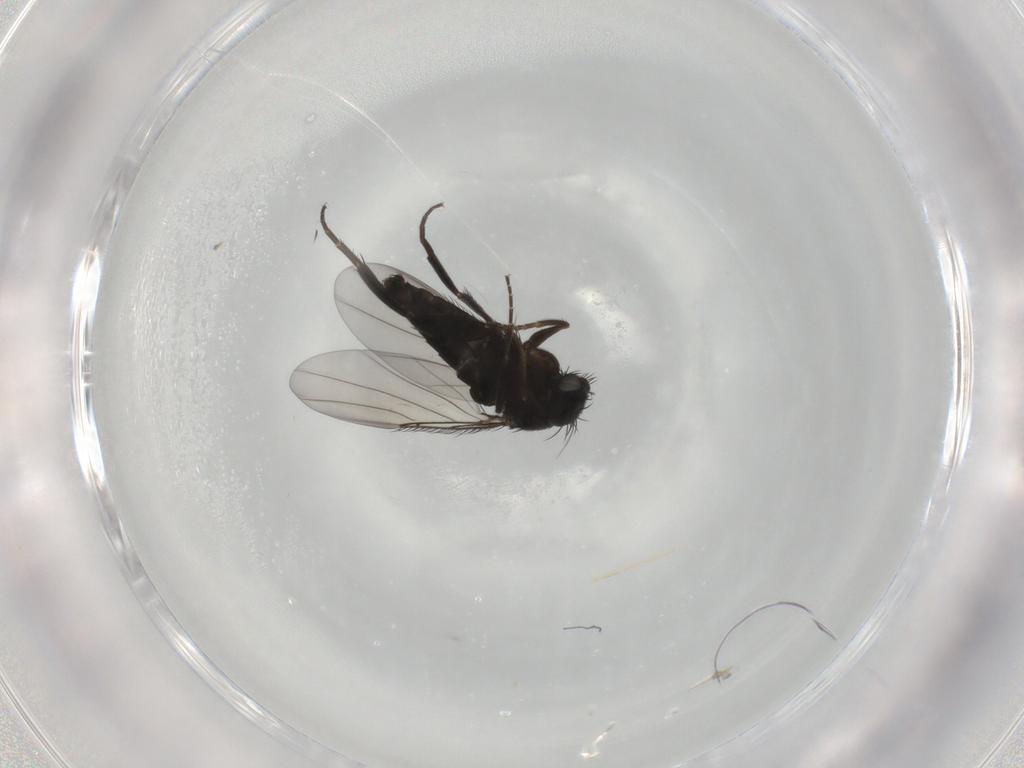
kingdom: Animalia
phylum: Arthropoda
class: Insecta
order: Diptera
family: Phoridae
